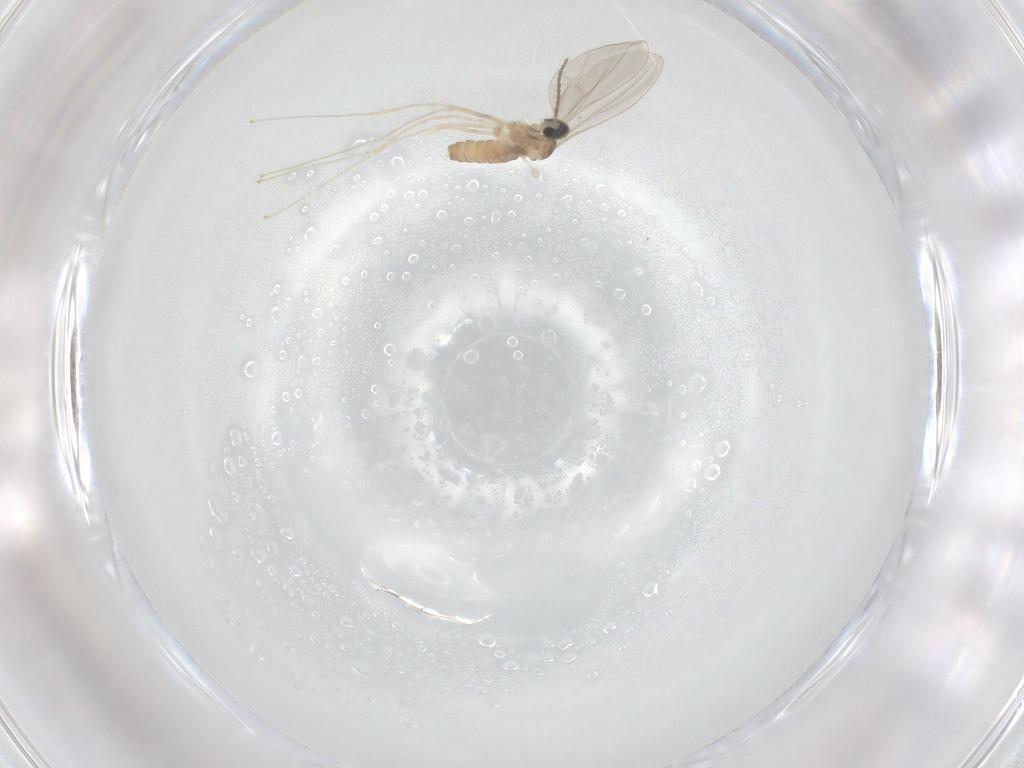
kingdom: Animalia
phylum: Arthropoda
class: Insecta
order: Diptera
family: Cecidomyiidae
